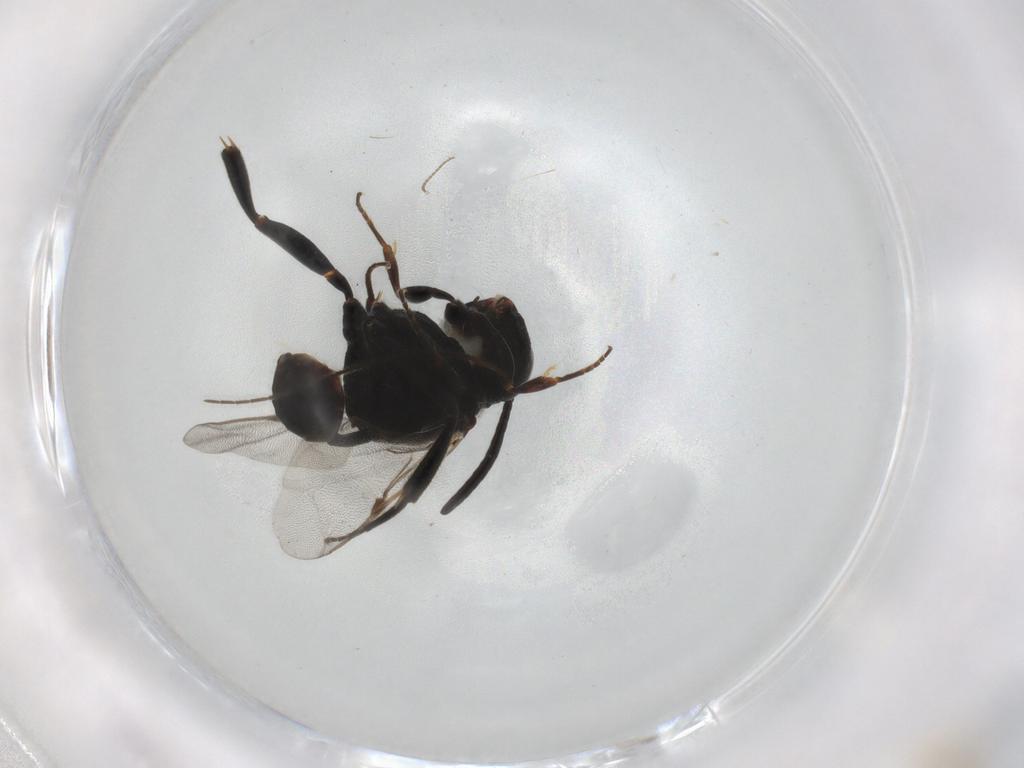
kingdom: Animalia
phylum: Arthropoda
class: Insecta
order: Hymenoptera
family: Evaniidae
